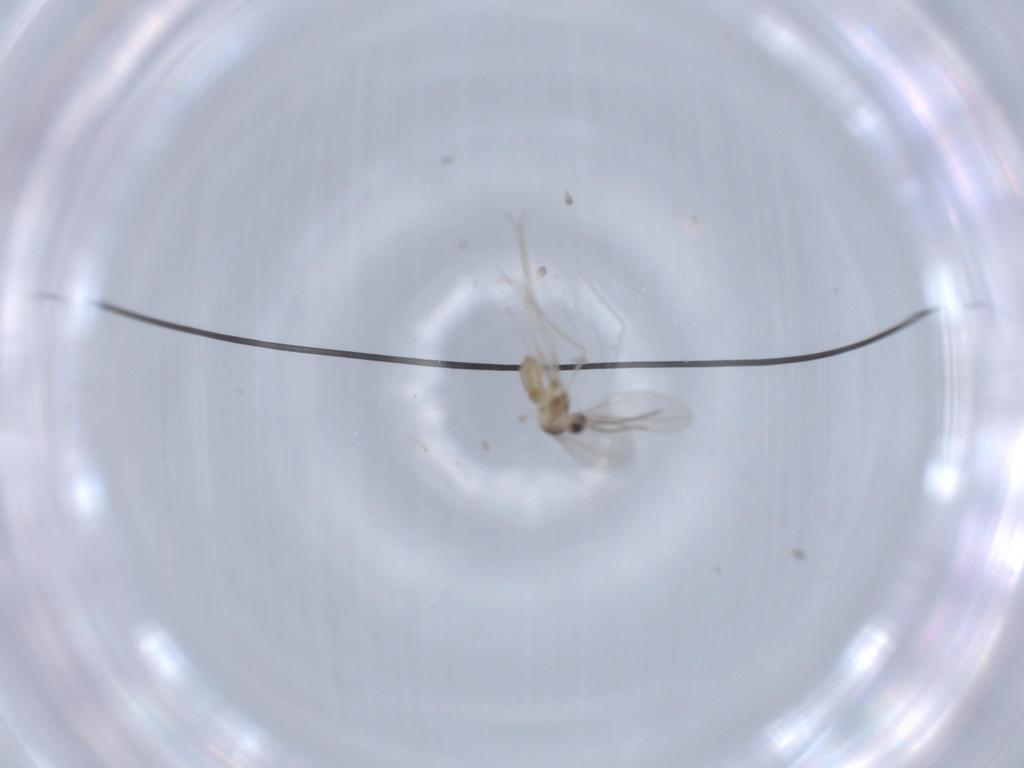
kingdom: Animalia
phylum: Arthropoda
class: Insecta
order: Diptera
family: Cecidomyiidae
